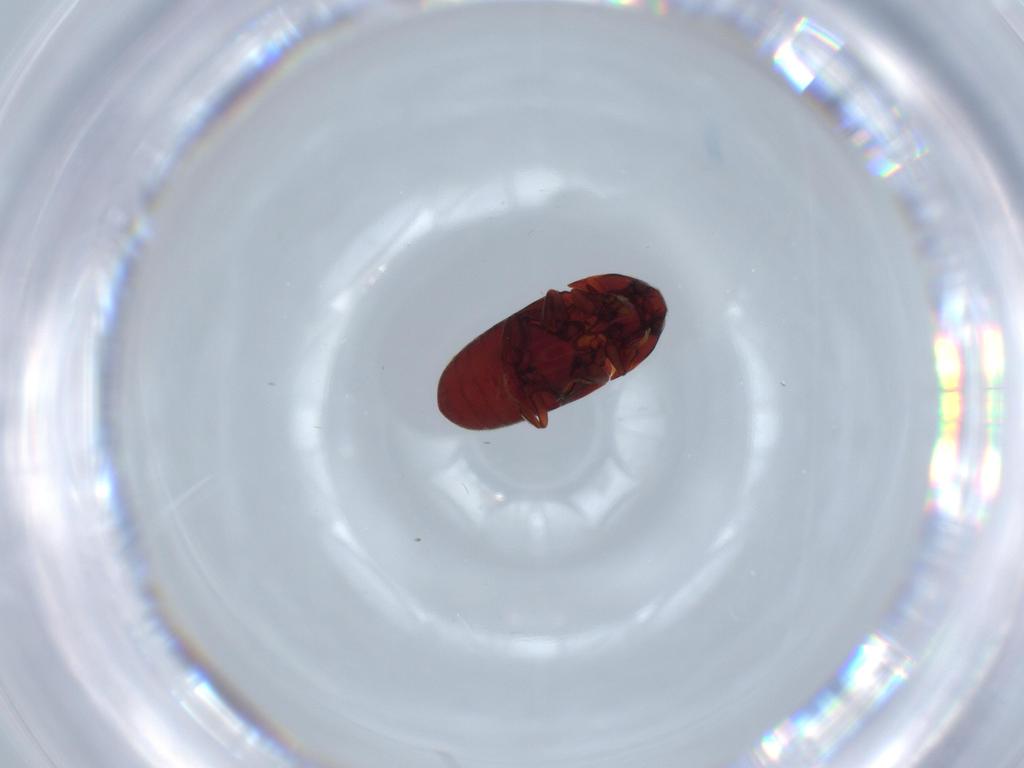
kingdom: Animalia
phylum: Arthropoda
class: Insecta
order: Coleoptera
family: Throscidae
